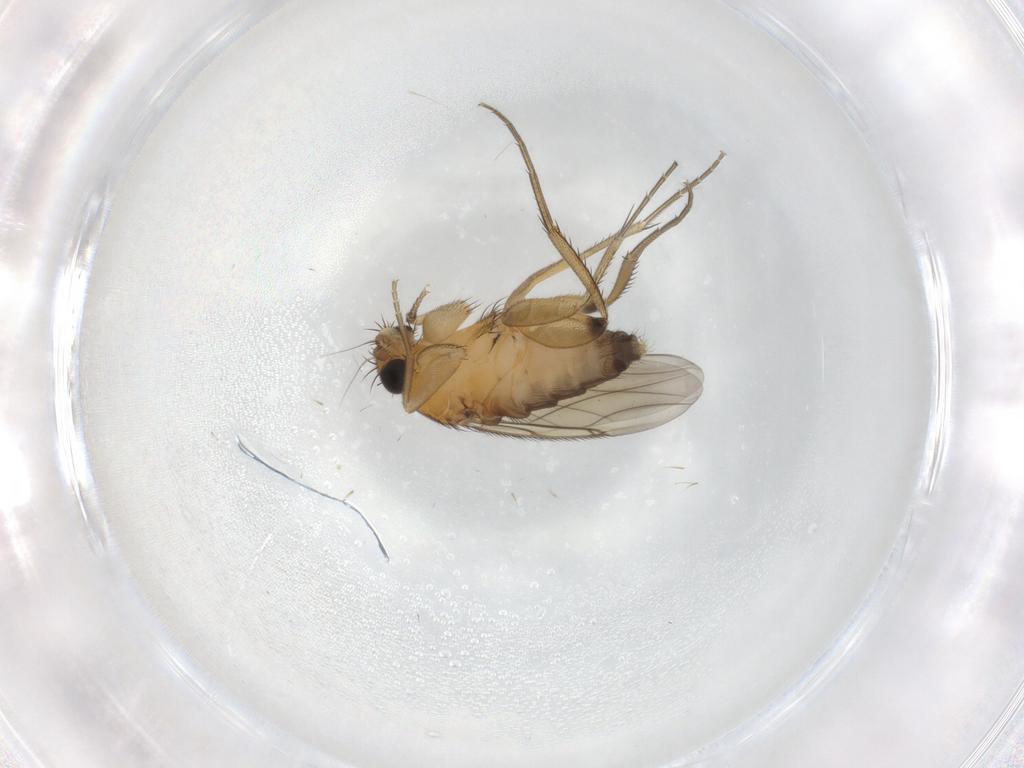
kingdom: Animalia
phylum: Arthropoda
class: Insecta
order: Diptera
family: Phoridae
